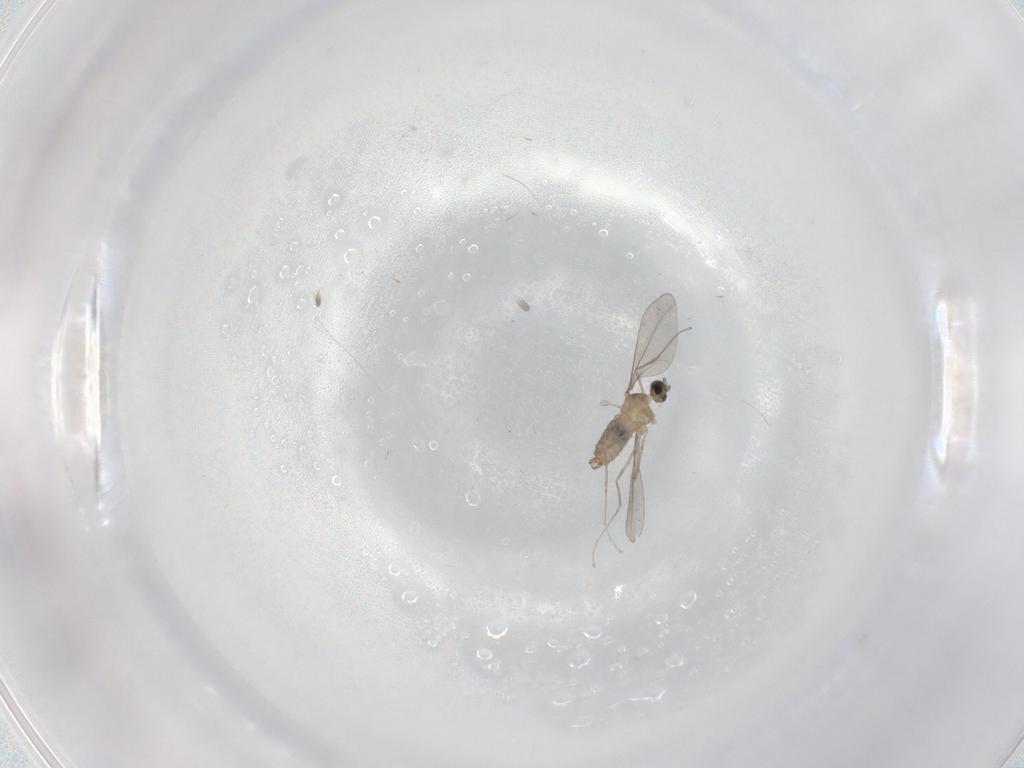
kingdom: Animalia
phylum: Arthropoda
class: Insecta
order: Diptera
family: Cecidomyiidae
